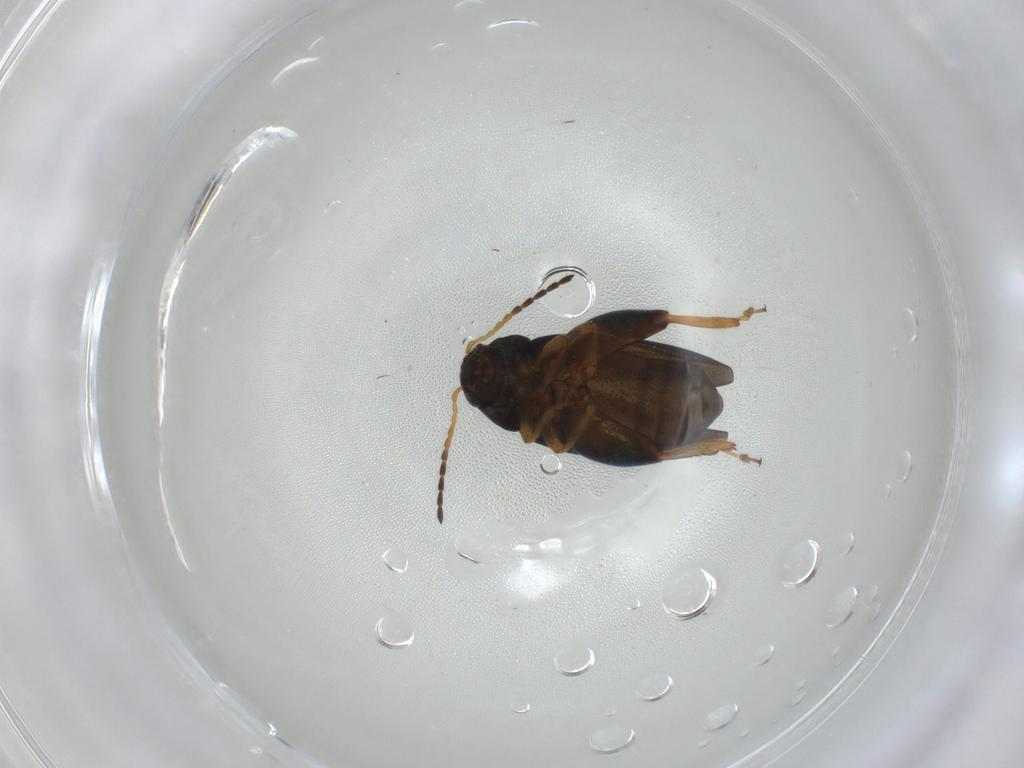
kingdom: Animalia
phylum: Arthropoda
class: Insecta
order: Coleoptera
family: Chrysomelidae
